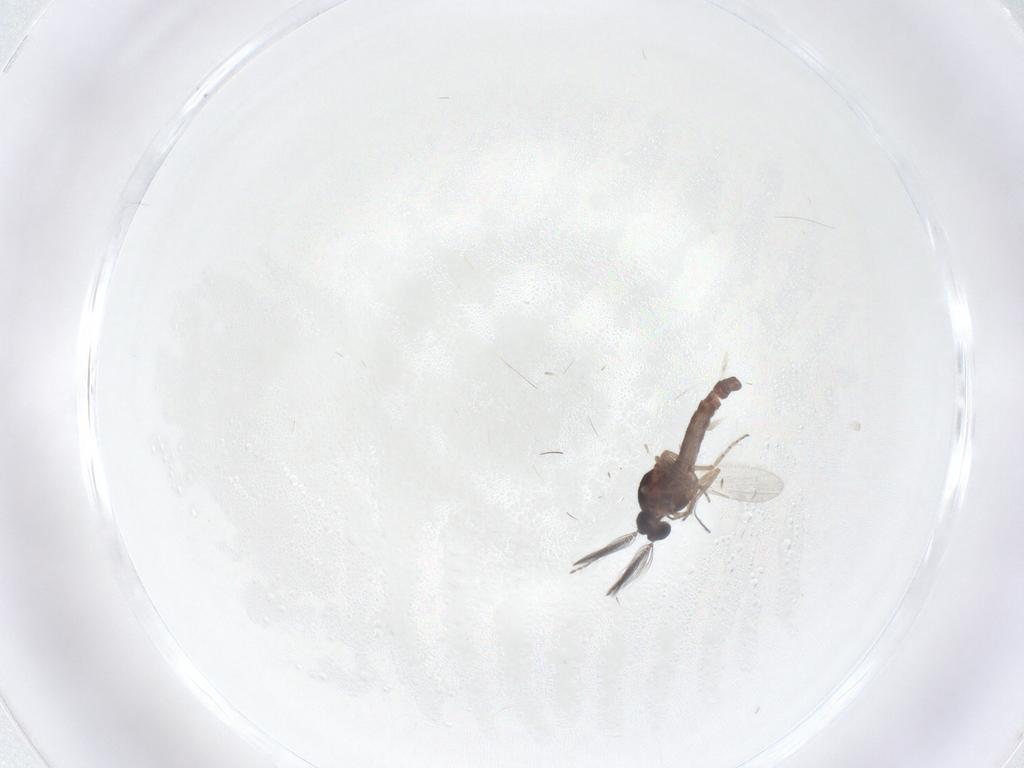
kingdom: Animalia
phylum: Arthropoda
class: Insecta
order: Diptera
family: Ceratopogonidae
